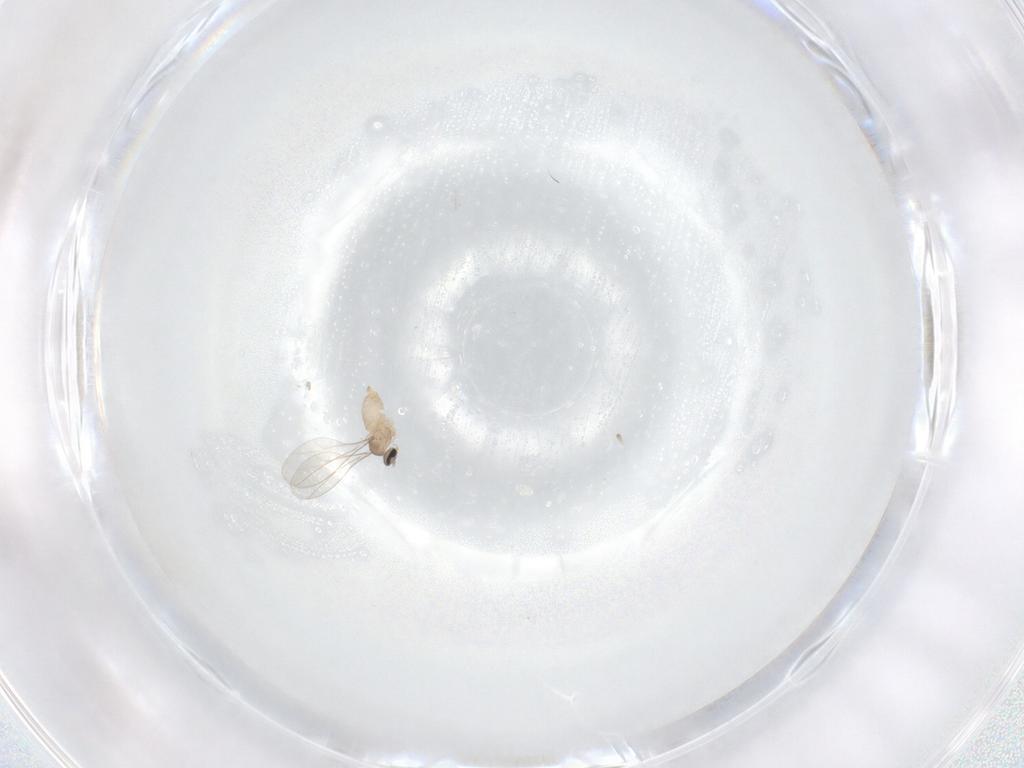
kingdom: Animalia
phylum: Arthropoda
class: Insecta
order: Diptera
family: Cecidomyiidae
